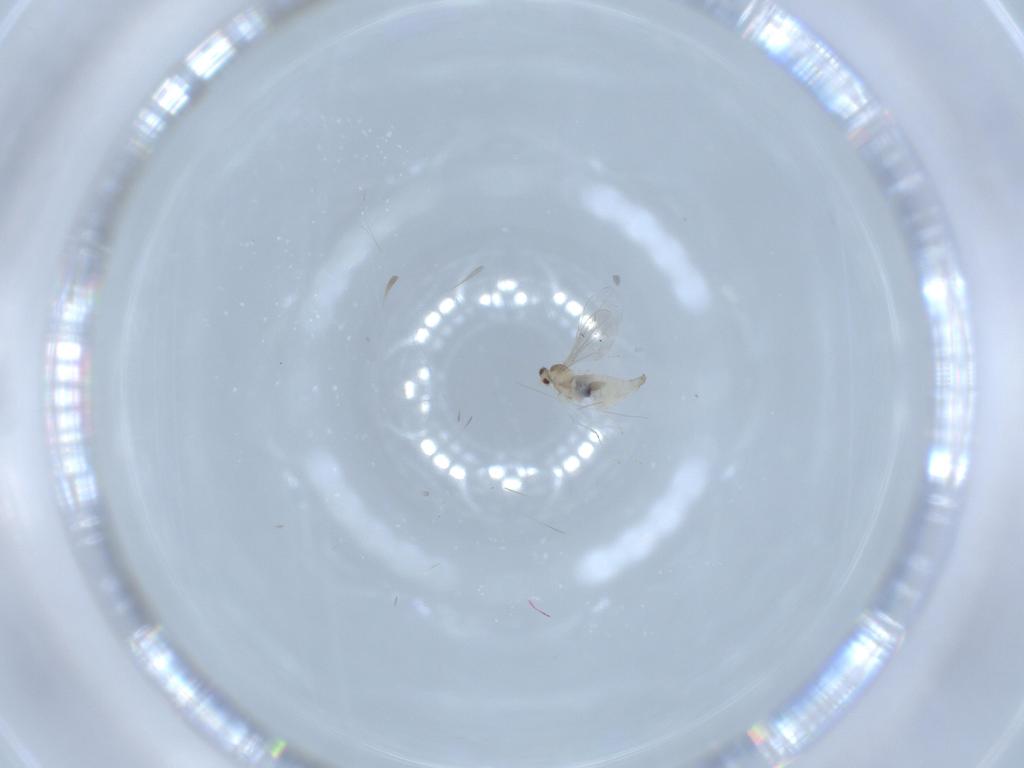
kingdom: Animalia
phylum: Arthropoda
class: Insecta
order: Diptera
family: Cecidomyiidae
